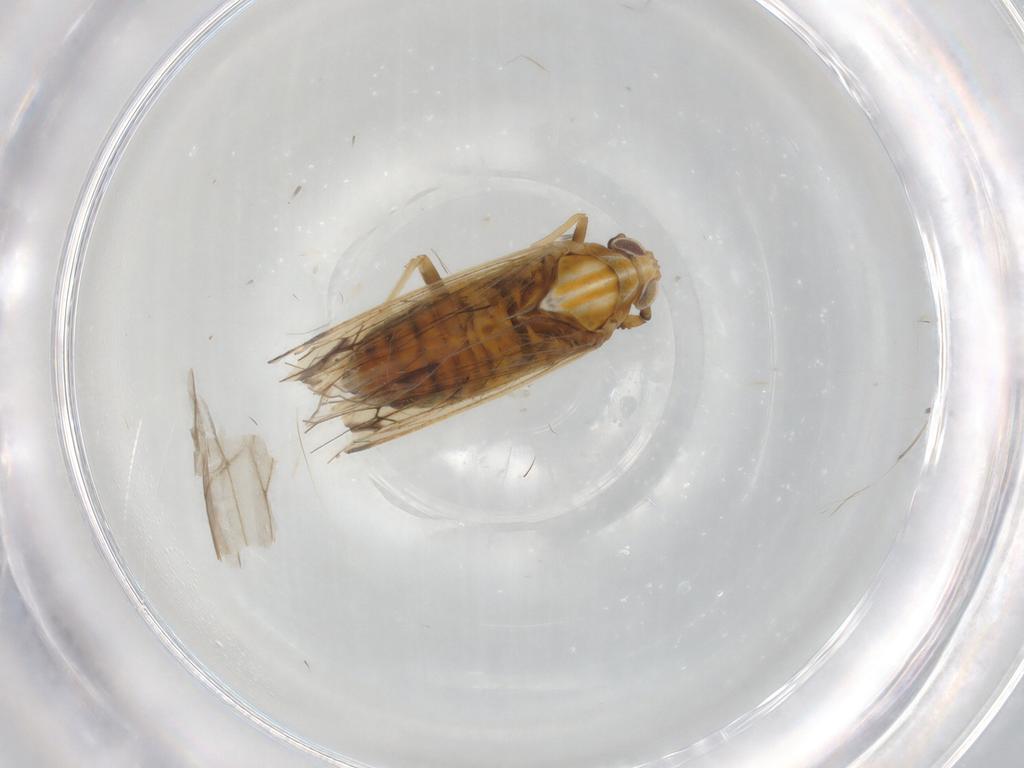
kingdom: Animalia
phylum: Arthropoda
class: Insecta
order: Hemiptera
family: Delphacidae
